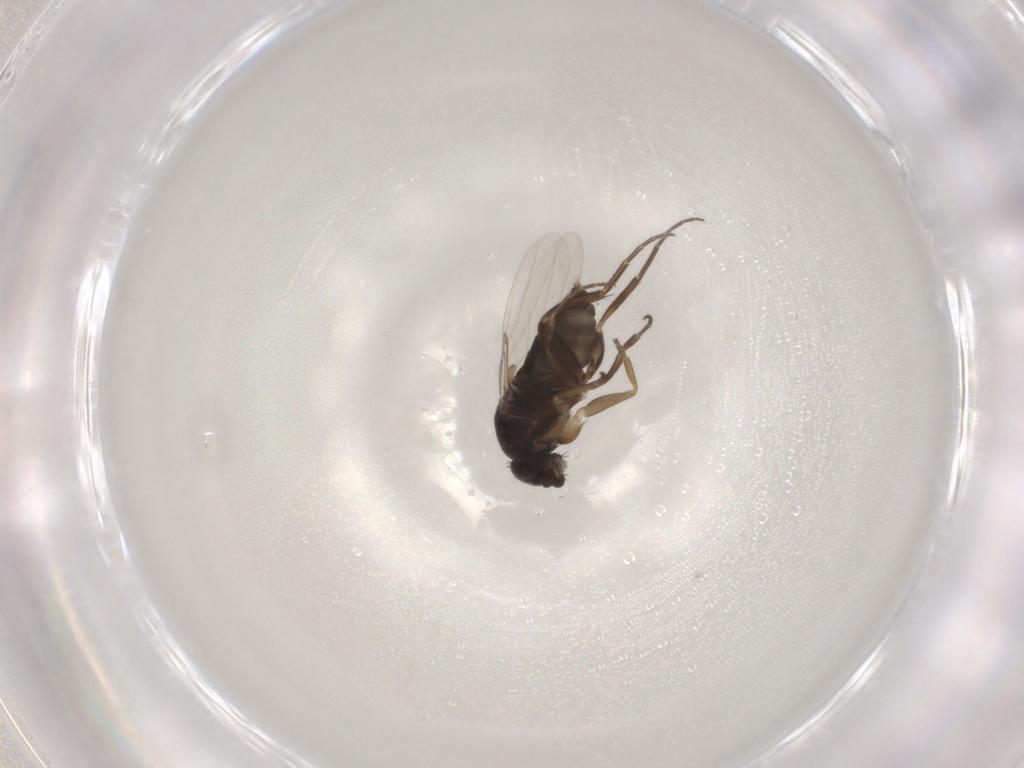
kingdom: Animalia
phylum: Arthropoda
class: Insecta
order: Diptera
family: Phoridae
